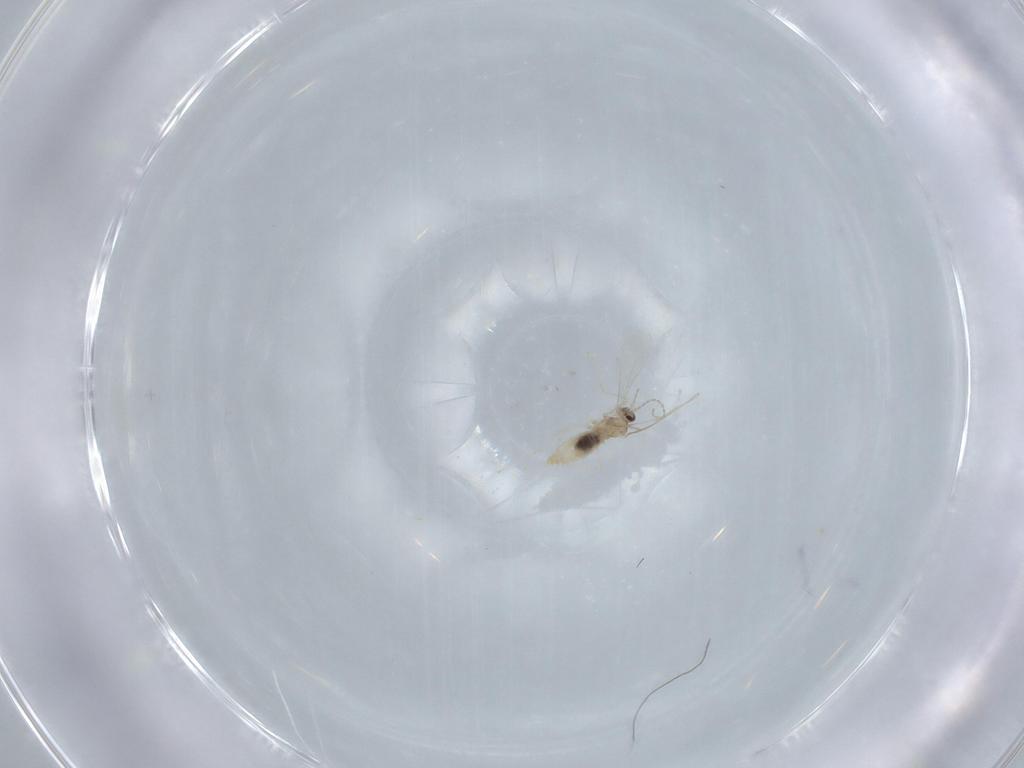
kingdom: Animalia
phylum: Arthropoda
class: Insecta
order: Diptera
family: Cecidomyiidae
